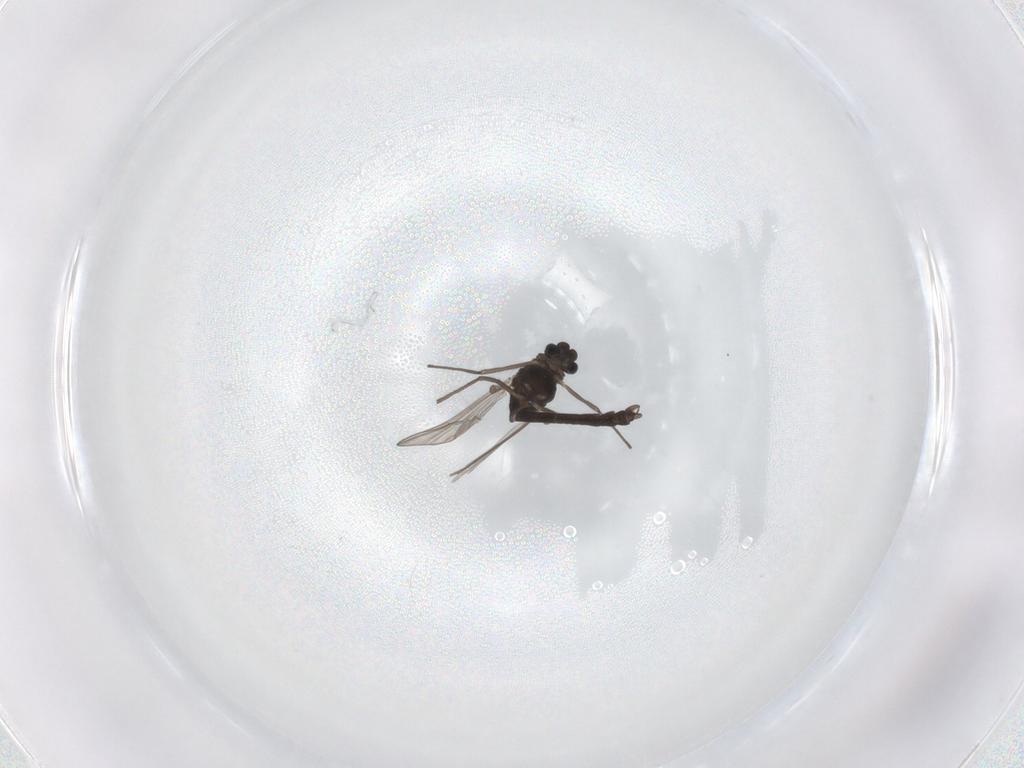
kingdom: Animalia
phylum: Arthropoda
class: Insecta
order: Diptera
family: Chironomidae
